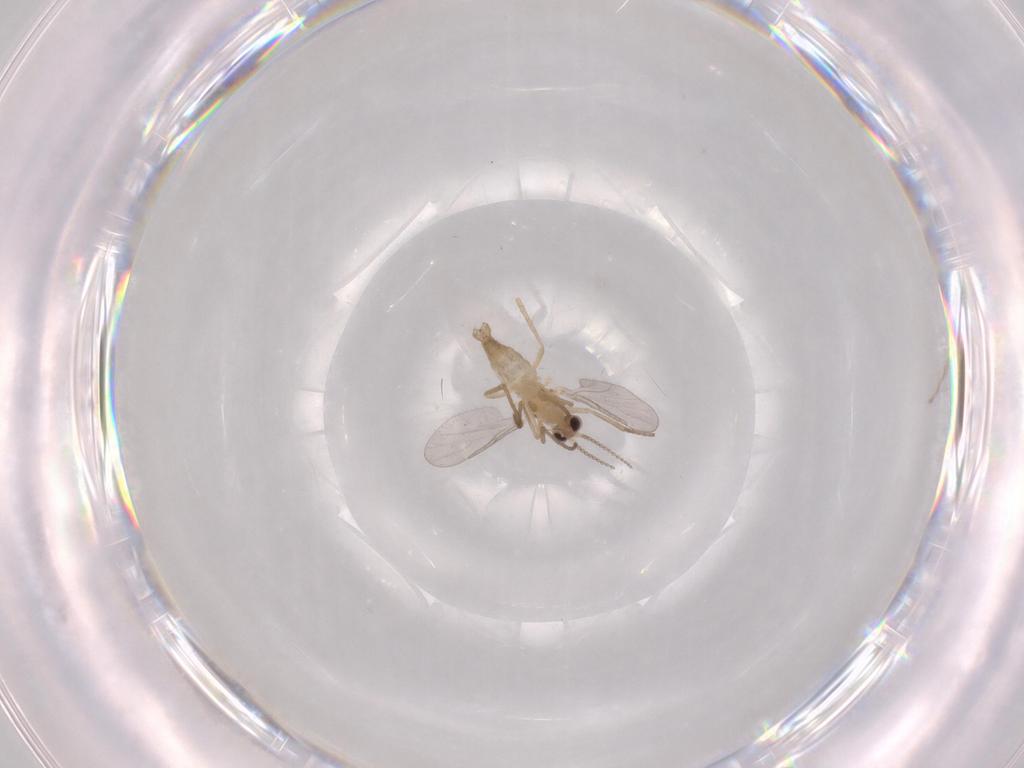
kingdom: Animalia
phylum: Arthropoda
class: Insecta
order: Diptera
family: Cecidomyiidae
